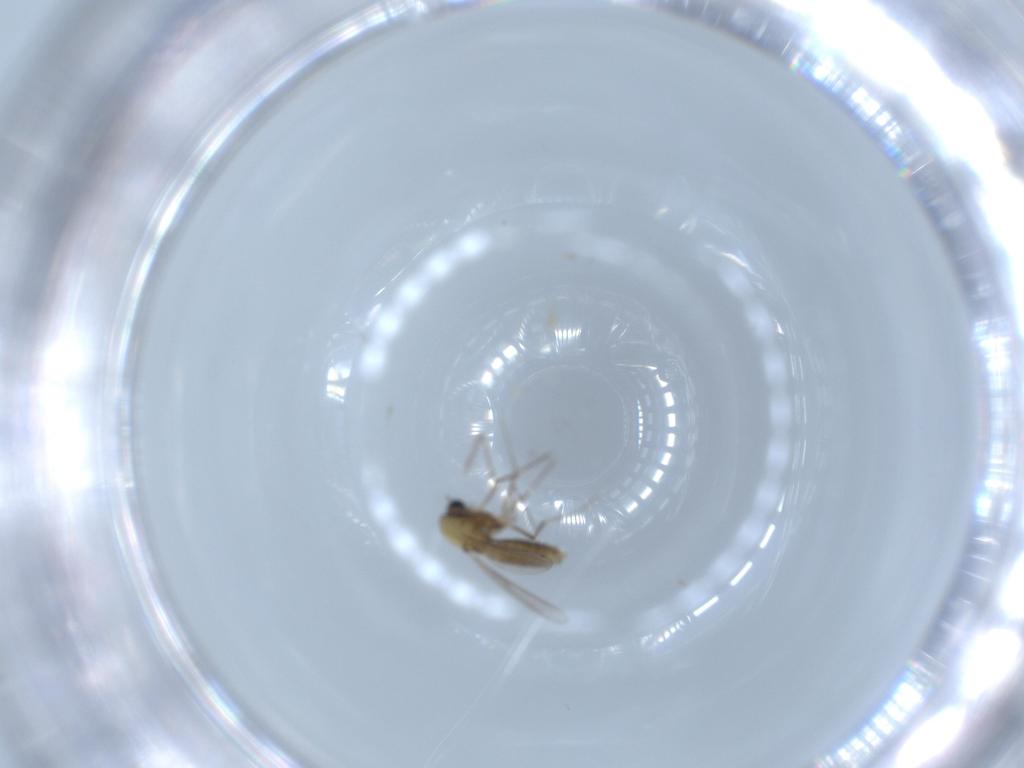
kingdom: Animalia
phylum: Arthropoda
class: Insecta
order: Diptera
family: Chironomidae
